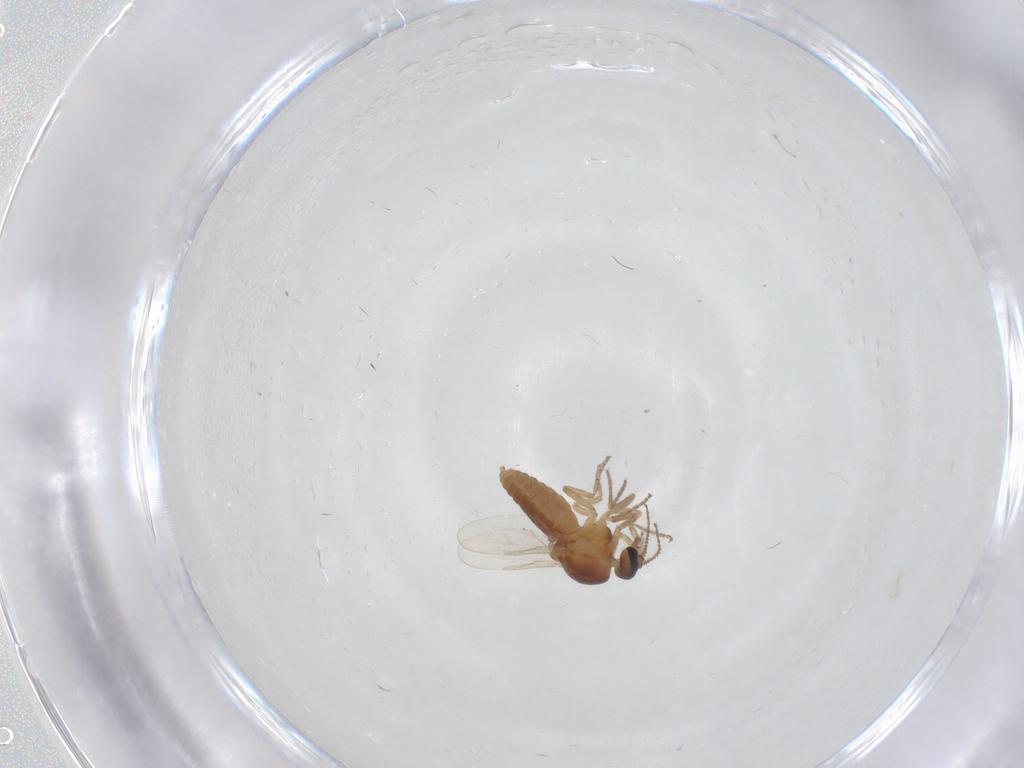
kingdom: Animalia
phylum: Arthropoda
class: Insecta
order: Diptera
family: Ceratopogonidae
